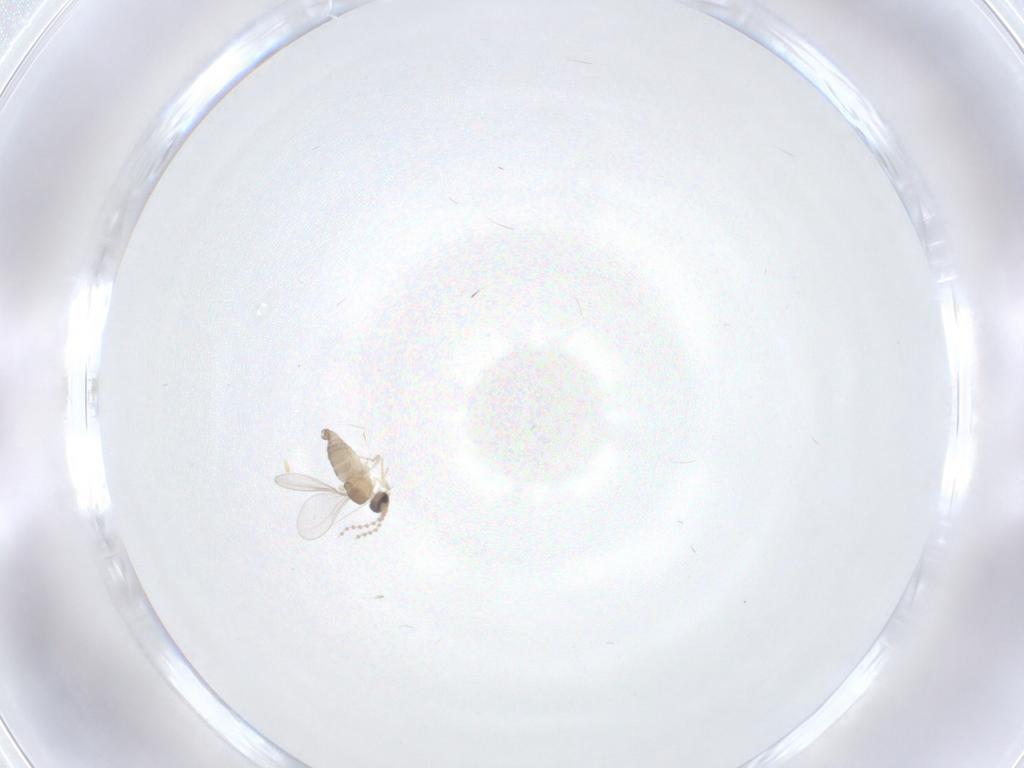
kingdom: Animalia
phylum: Arthropoda
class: Insecta
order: Diptera
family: Cecidomyiidae
